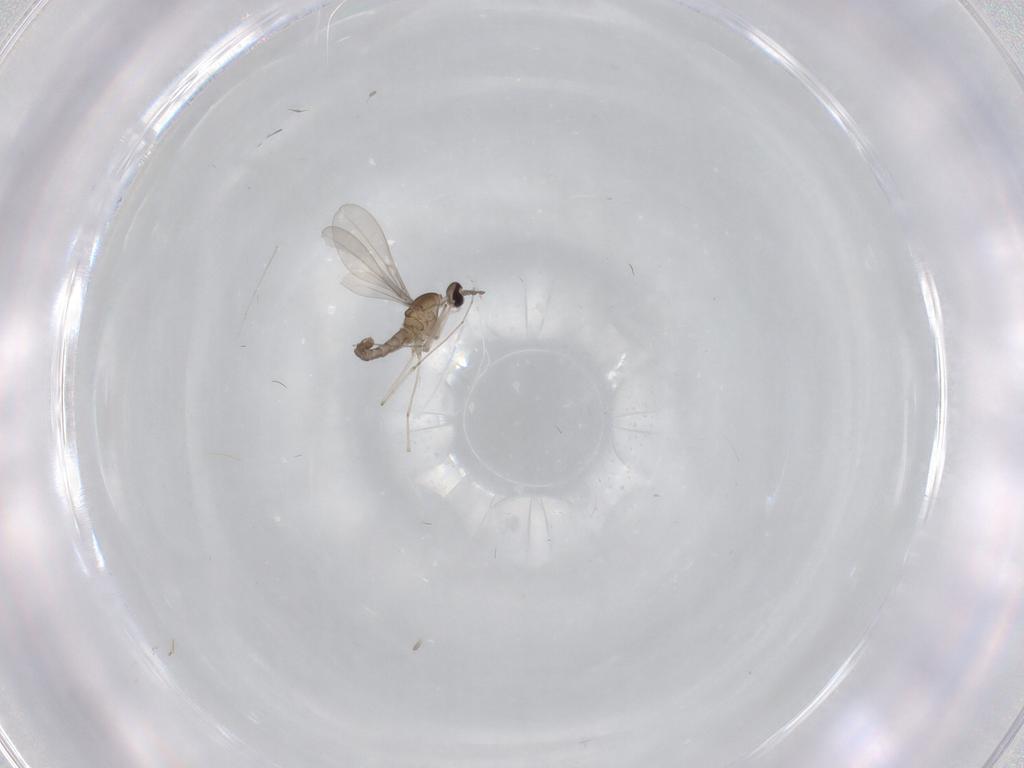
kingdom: Animalia
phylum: Arthropoda
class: Insecta
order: Diptera
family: Cecidomyiidae
